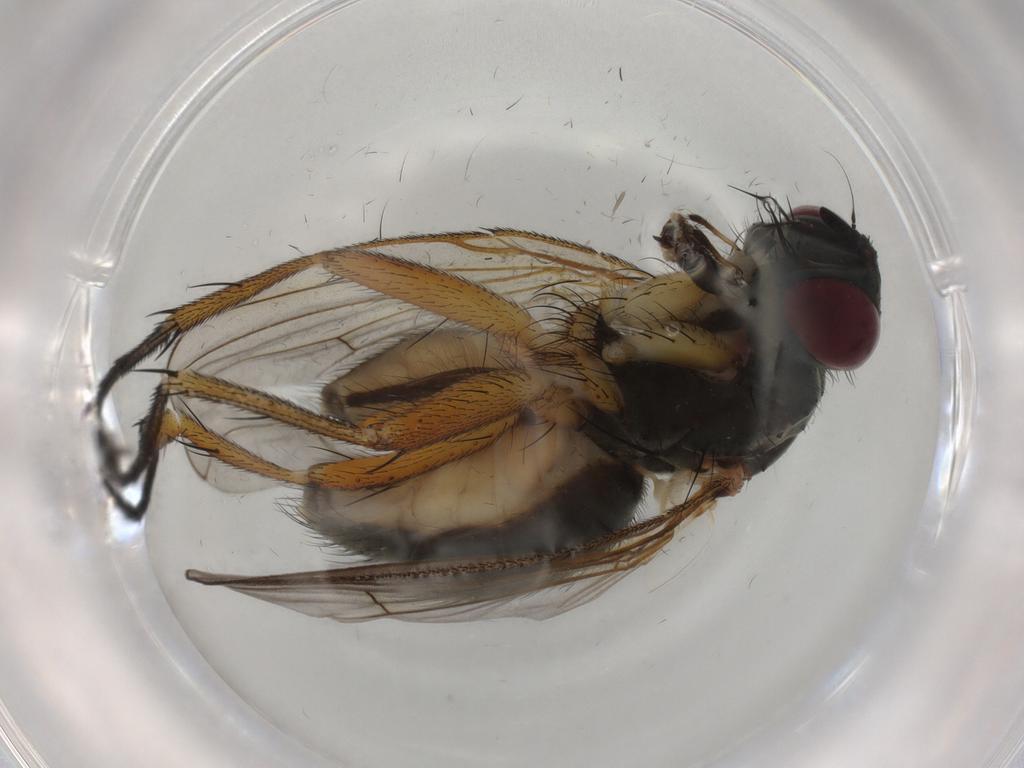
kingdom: Animalia
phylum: Arthropoda
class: Insecta
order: Diptera
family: Muscidae
